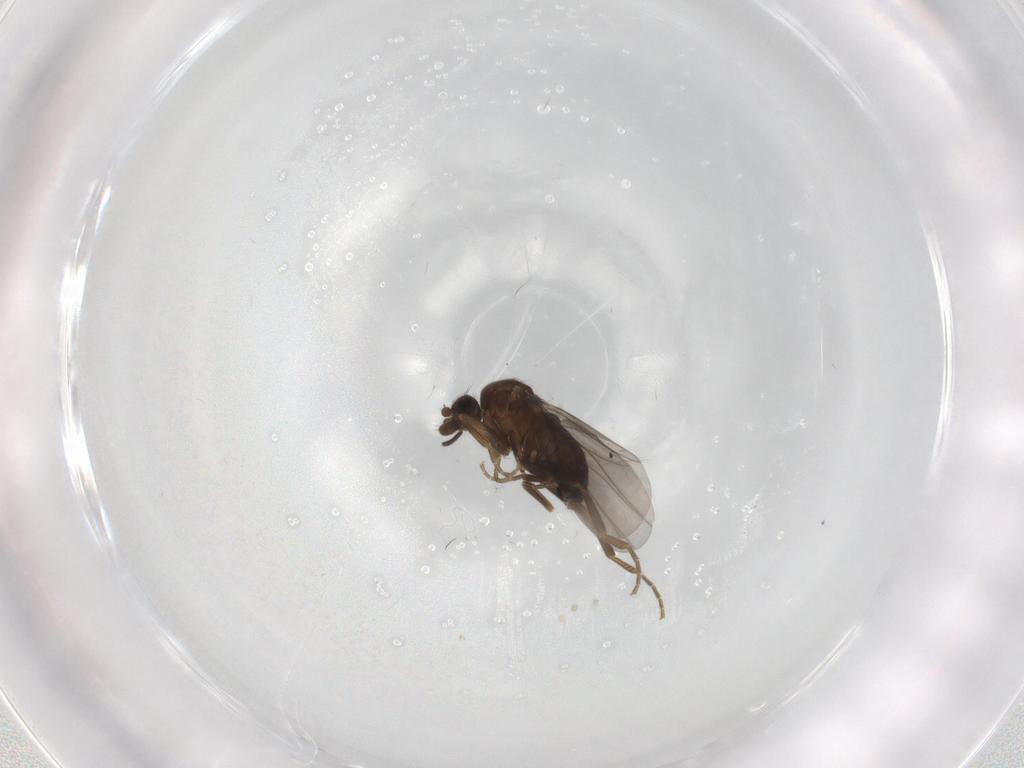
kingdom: Animalia
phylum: Arthropoda
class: Insecta
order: Diptera
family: Phoridae
